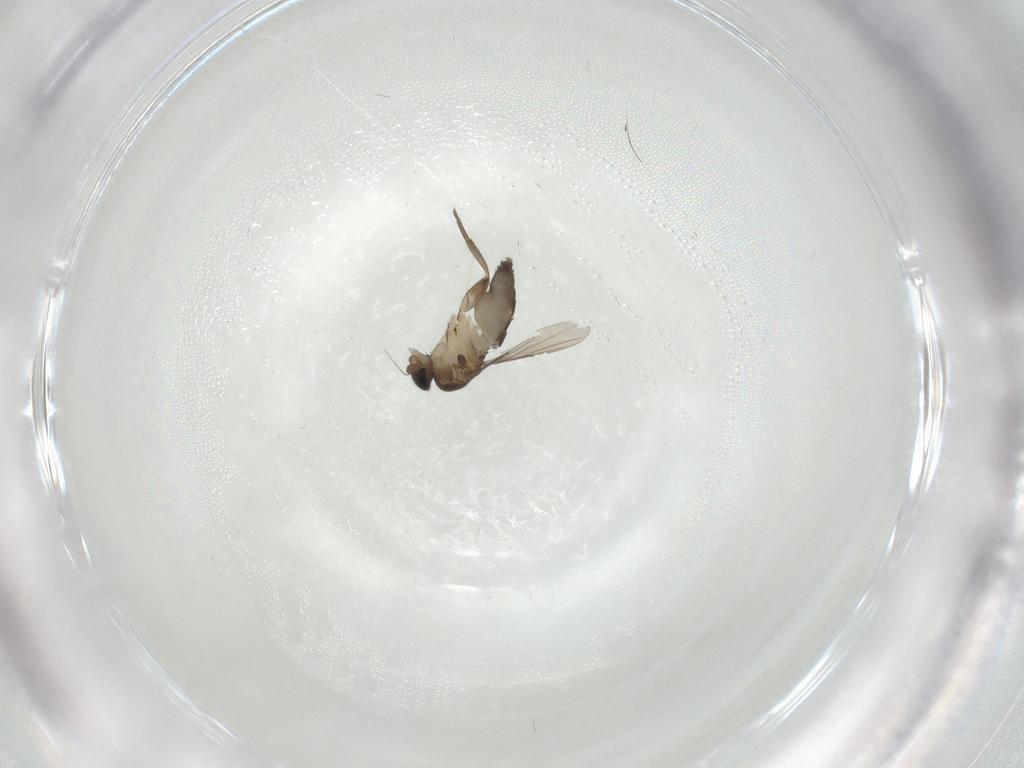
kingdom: Animalia
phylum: Arthropoda
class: Insecta
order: Diptera
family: Phoridae
